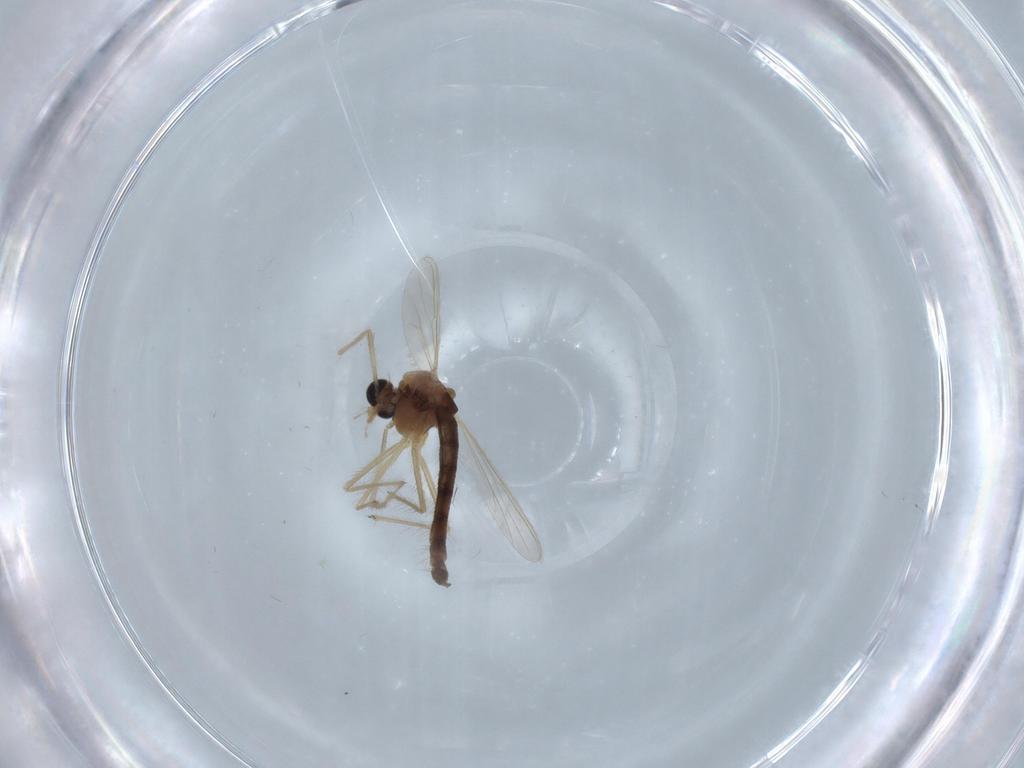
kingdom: Animalia
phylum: Arthropoda
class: Insecta
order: Diptera
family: Chironomidae
